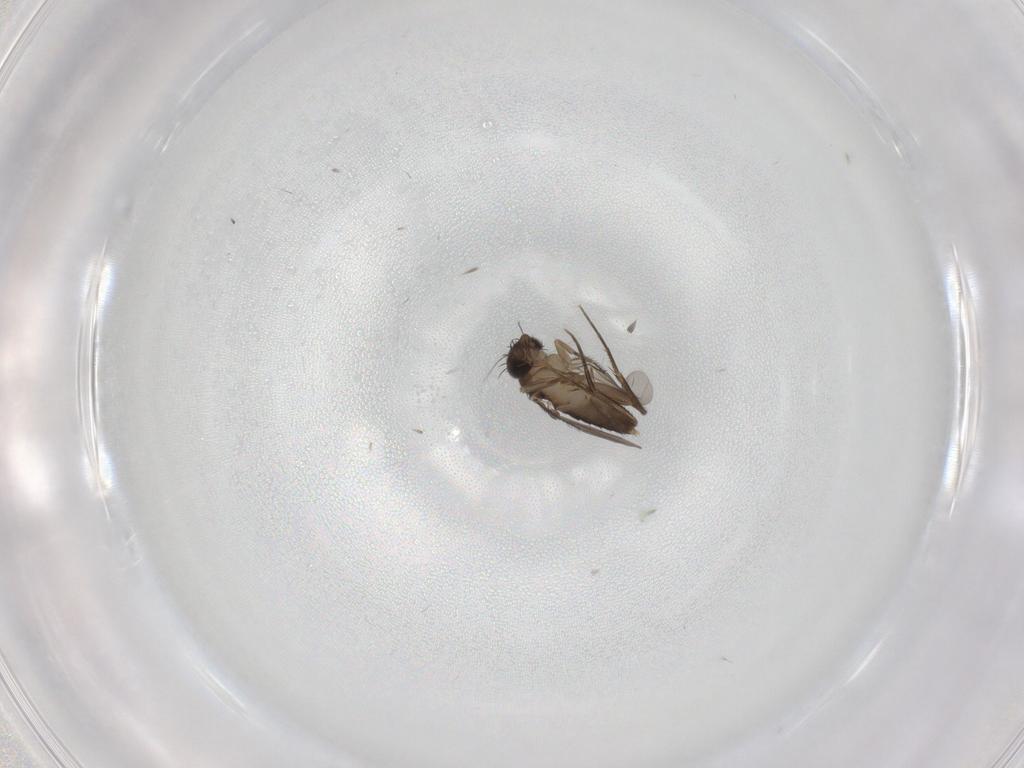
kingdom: Animalia
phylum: Arthropoda
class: Insecta
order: Diptera
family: Phoridae
